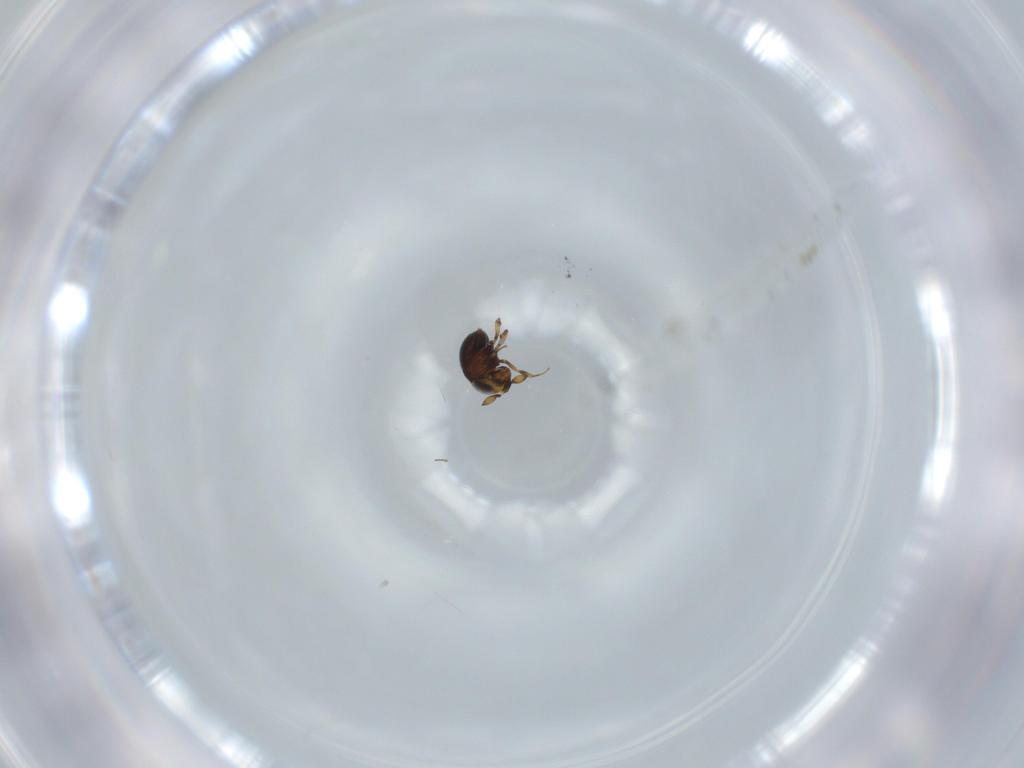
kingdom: Animalia
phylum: Arthropoda
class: Insecta
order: Hymenoptera
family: Scelionidae
